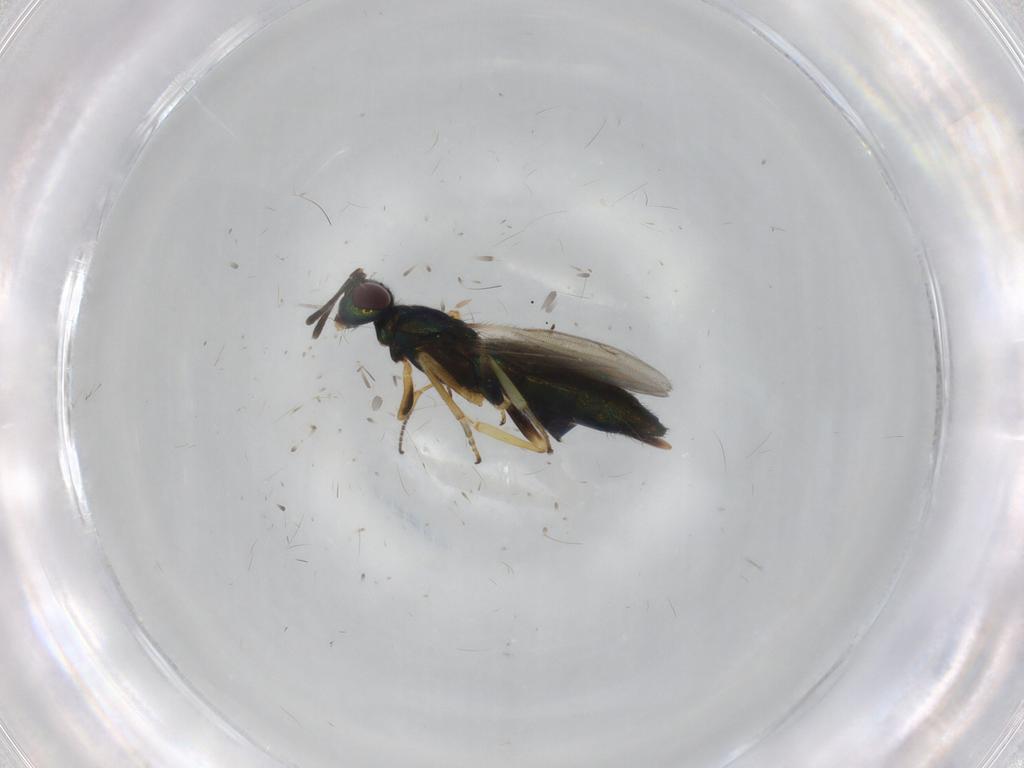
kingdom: Animalia
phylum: Arthropoda
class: Insecta
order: Hymenoptera
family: Eupelmidae
